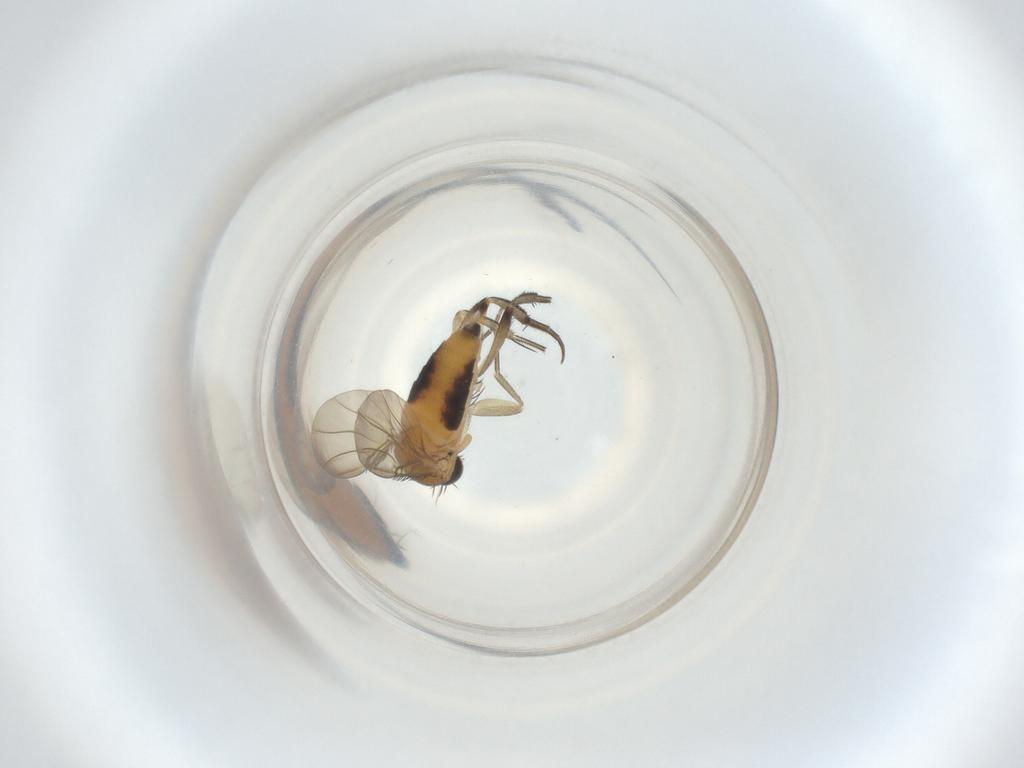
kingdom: Animalia
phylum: Arthropoda
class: Insecta
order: Diptera
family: Phoridae
